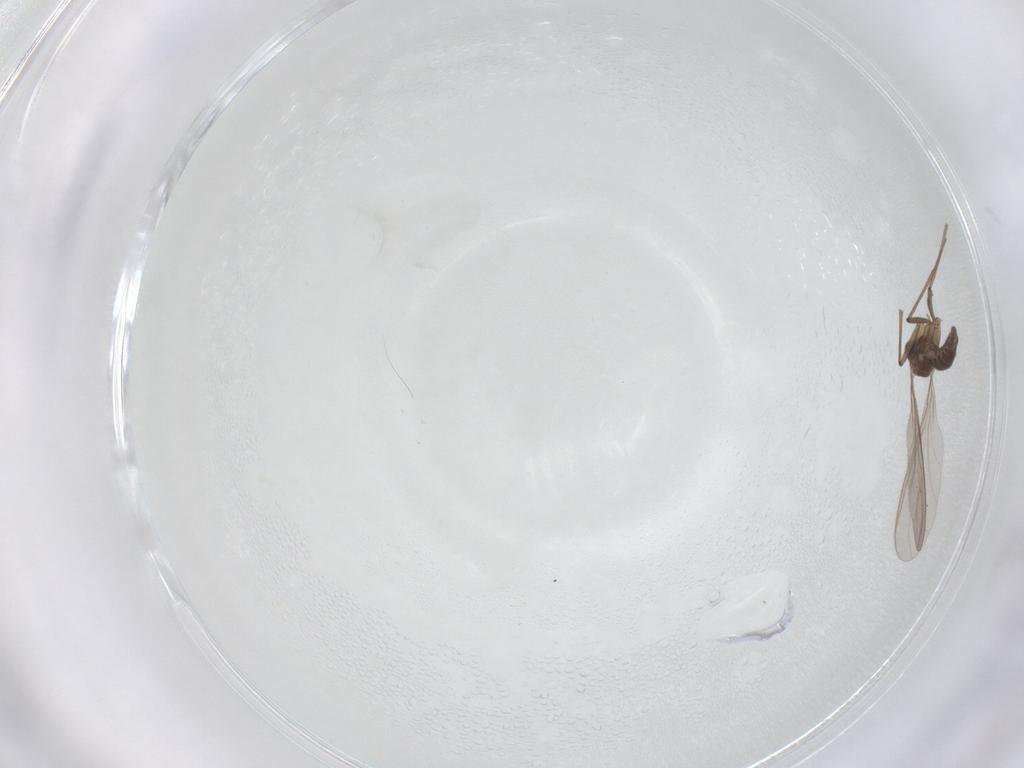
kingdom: Animalia
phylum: Arthropoda
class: Insecta
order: Diptera
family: Sciaridae
